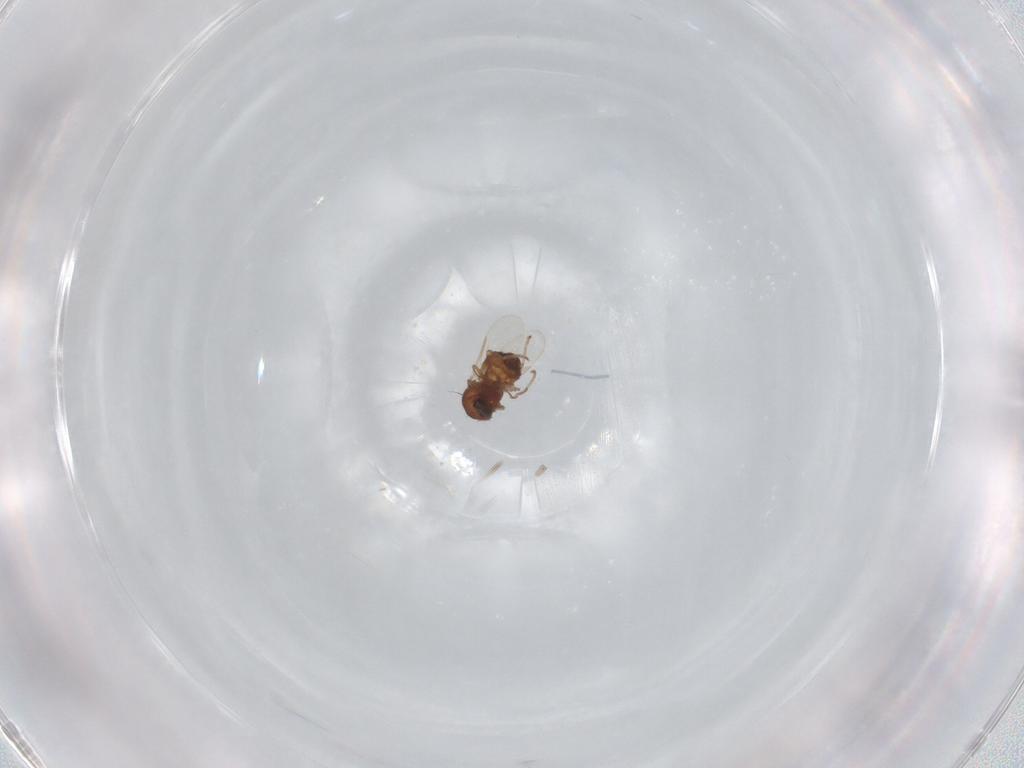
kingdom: Animalia
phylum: Arthropoda
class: Insecta
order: Diptera
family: Ceratopogonidae
